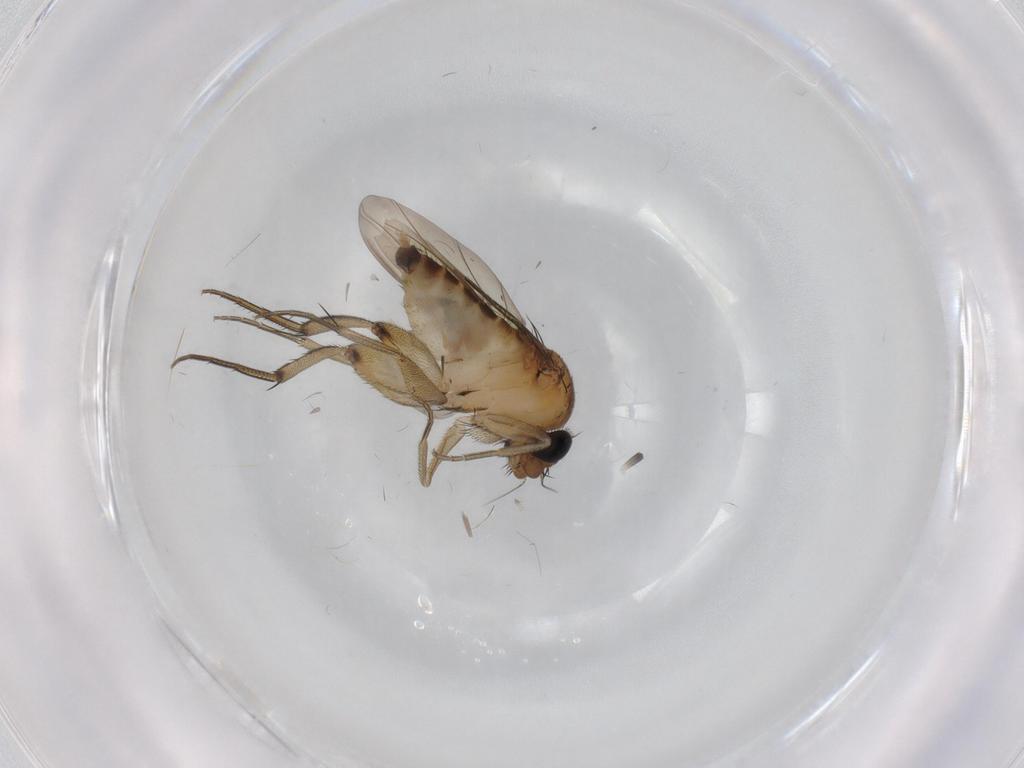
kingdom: Animalia
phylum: Arthropoda
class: Insecta
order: Diptera
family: Phoridae
